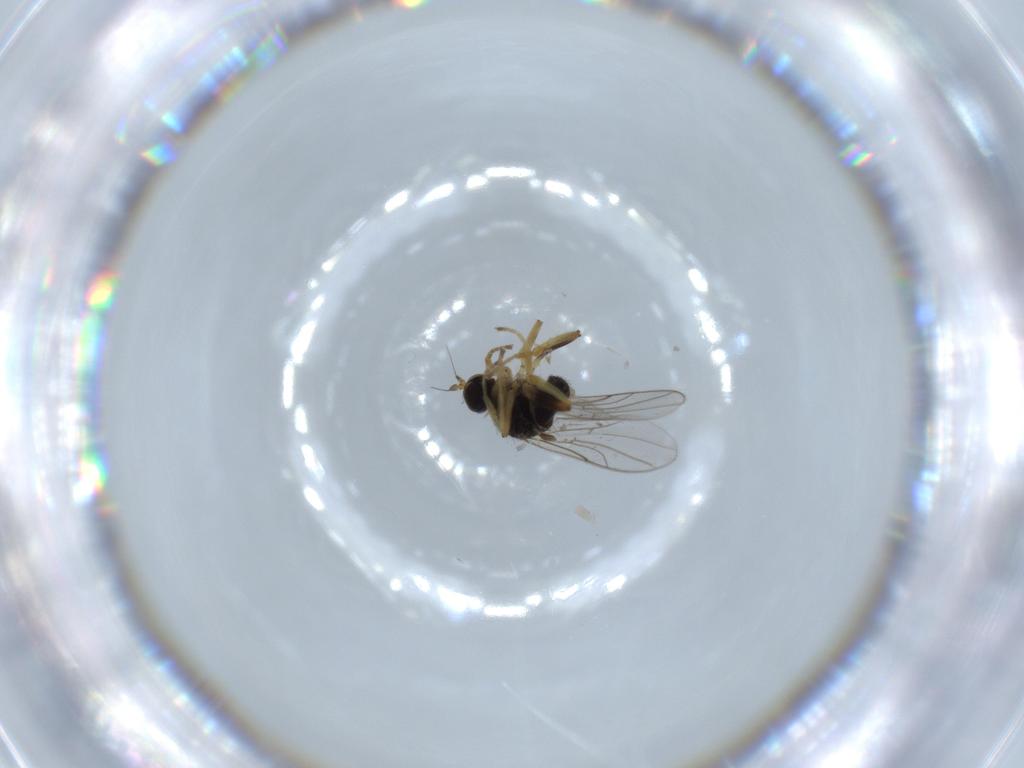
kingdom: Animalia
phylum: Arthropoda
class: Insecta
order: Diptera
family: Hybotidae
